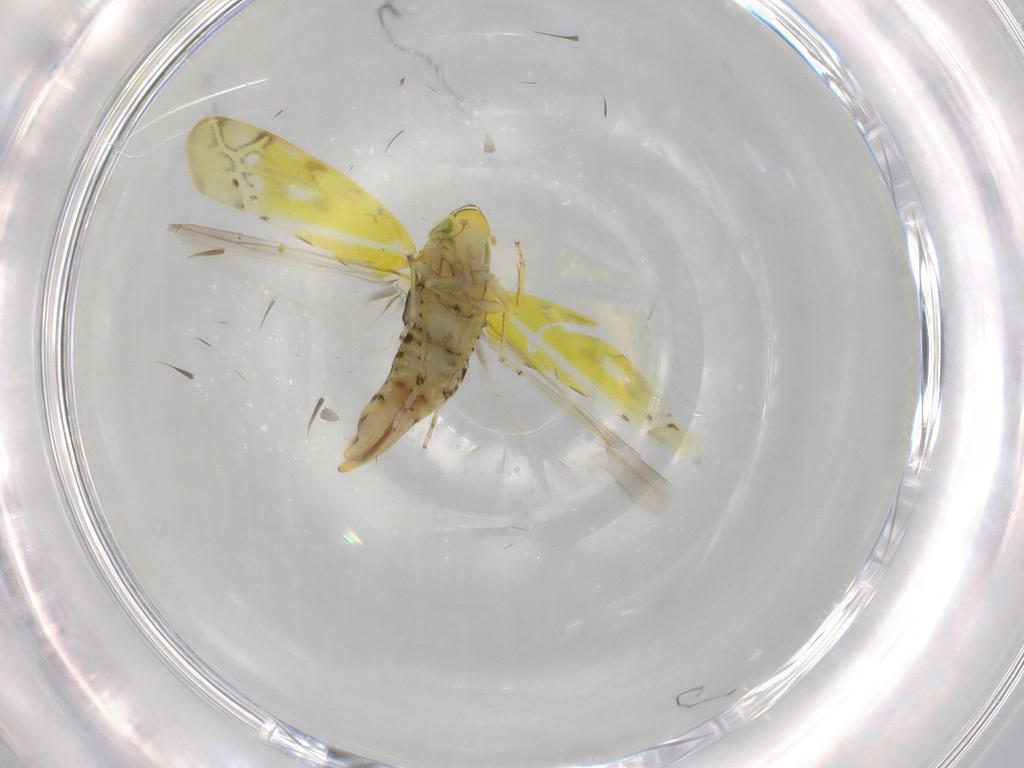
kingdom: Animalia
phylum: Arthropoda
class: Insecta
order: Hemiptera
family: Cicadellidae
